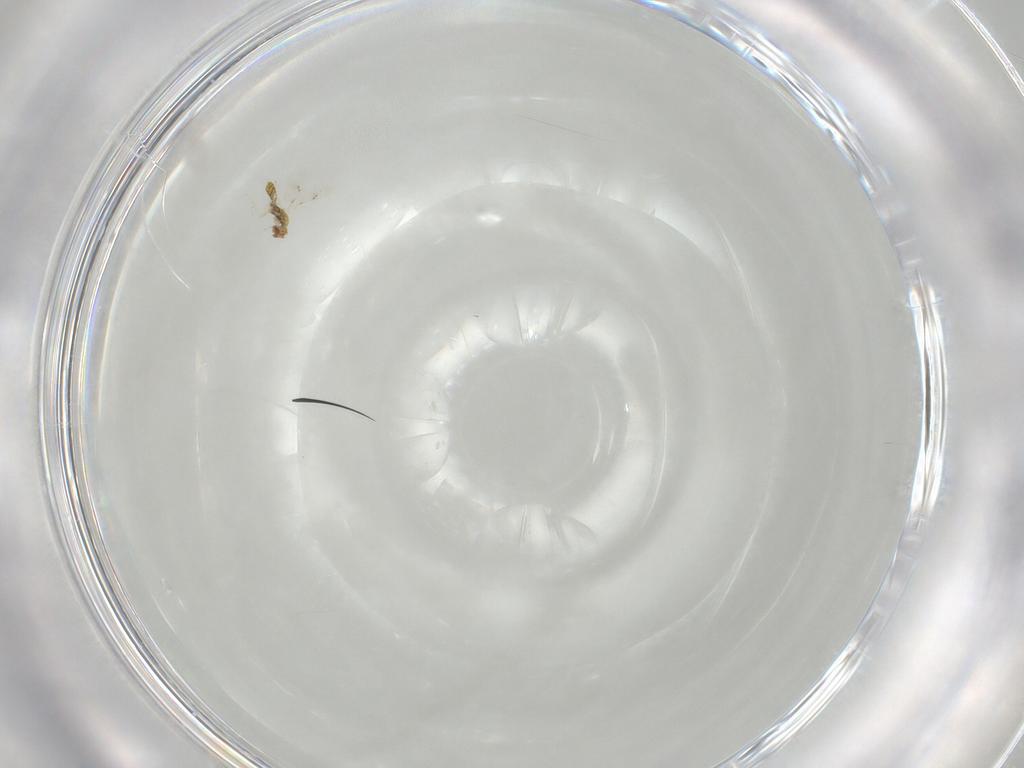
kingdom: Animalia
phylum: Arthropoda
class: Insecta
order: Hymenoptera
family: Eulophidae
